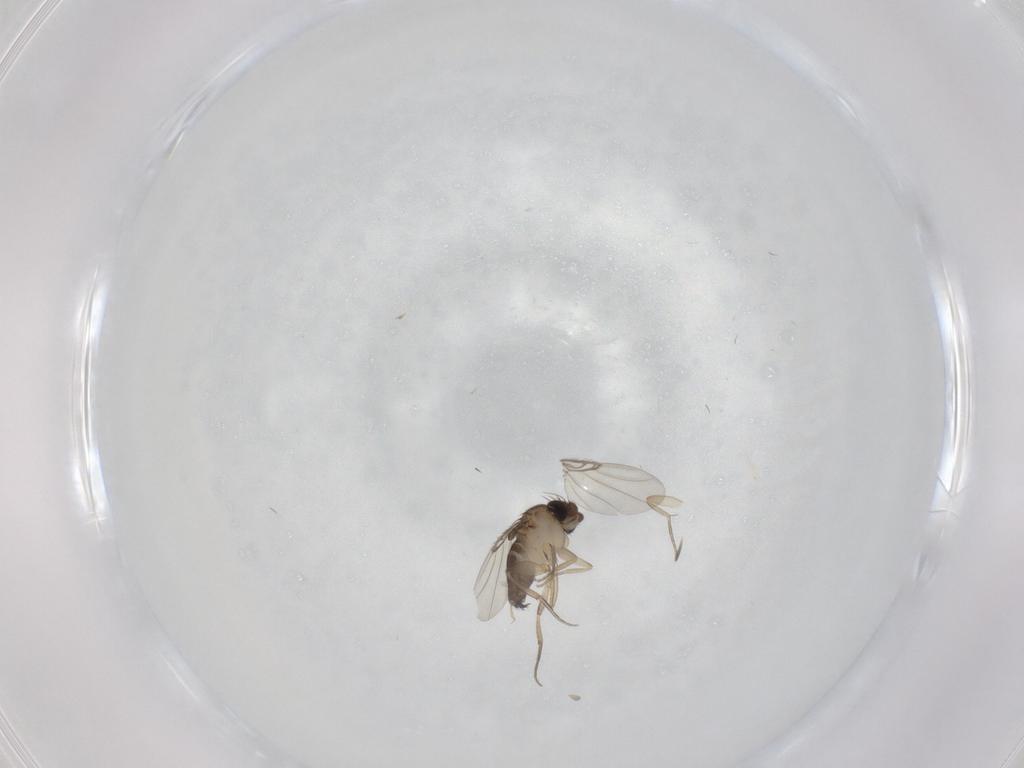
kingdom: Animalia
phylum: Arthropoda
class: Insecta
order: Diptera
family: Phoridae
